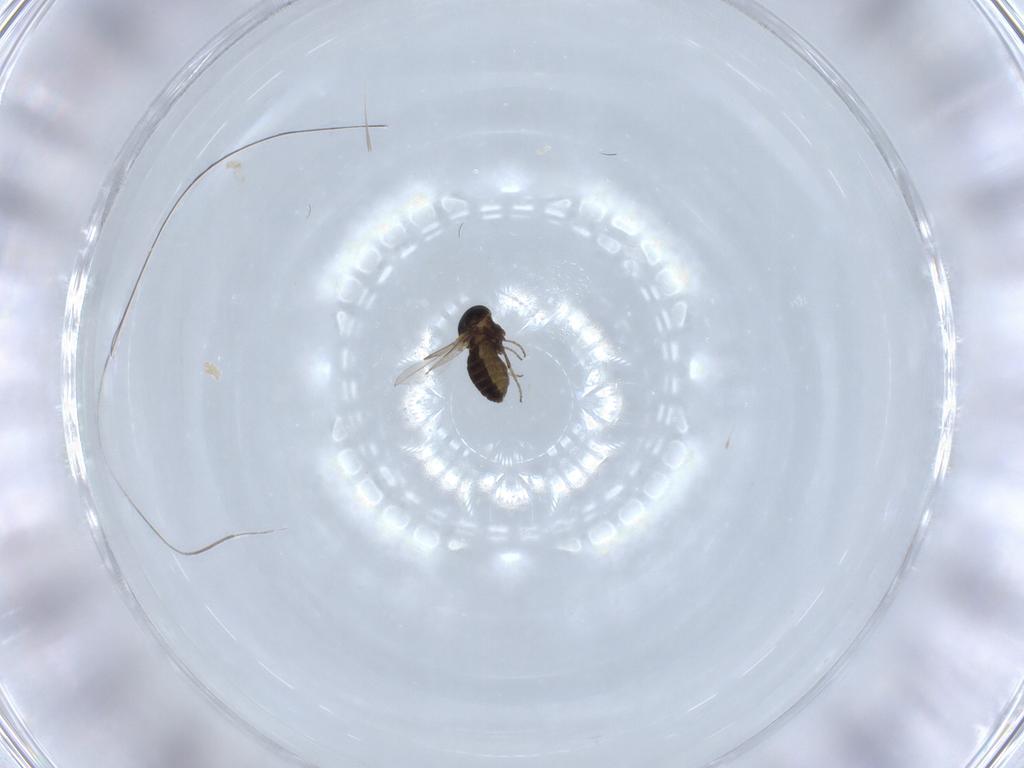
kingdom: Animalia
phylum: Arthropoda
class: Insecta
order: Diptera
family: Ceratopogonidae
